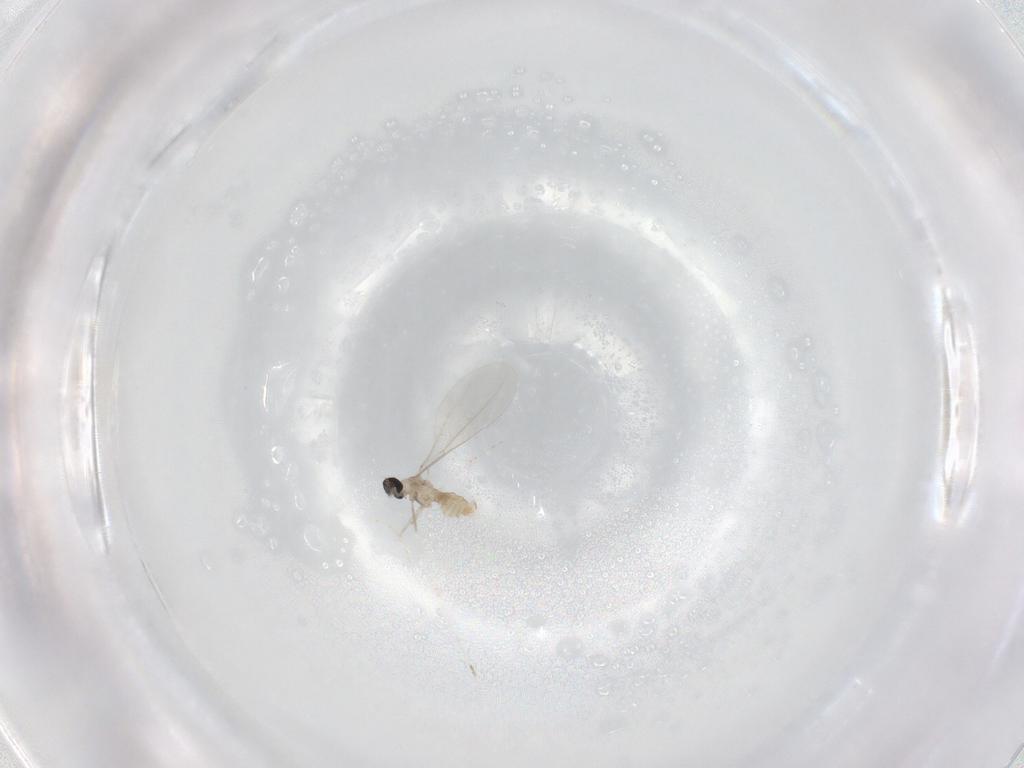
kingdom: Animalia
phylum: Arthropoda
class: Insecta
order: Diptera
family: Cecidomyiidae
